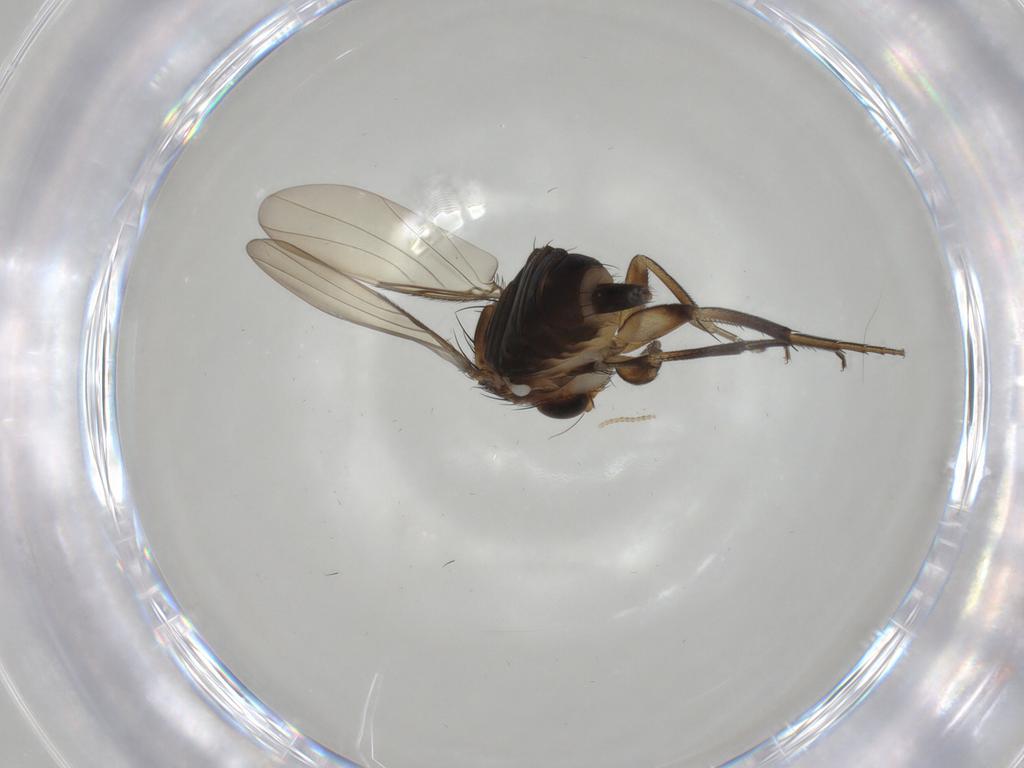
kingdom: Animalia
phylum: Arthropoda
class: Insecta
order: Diptera
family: Phoridae
